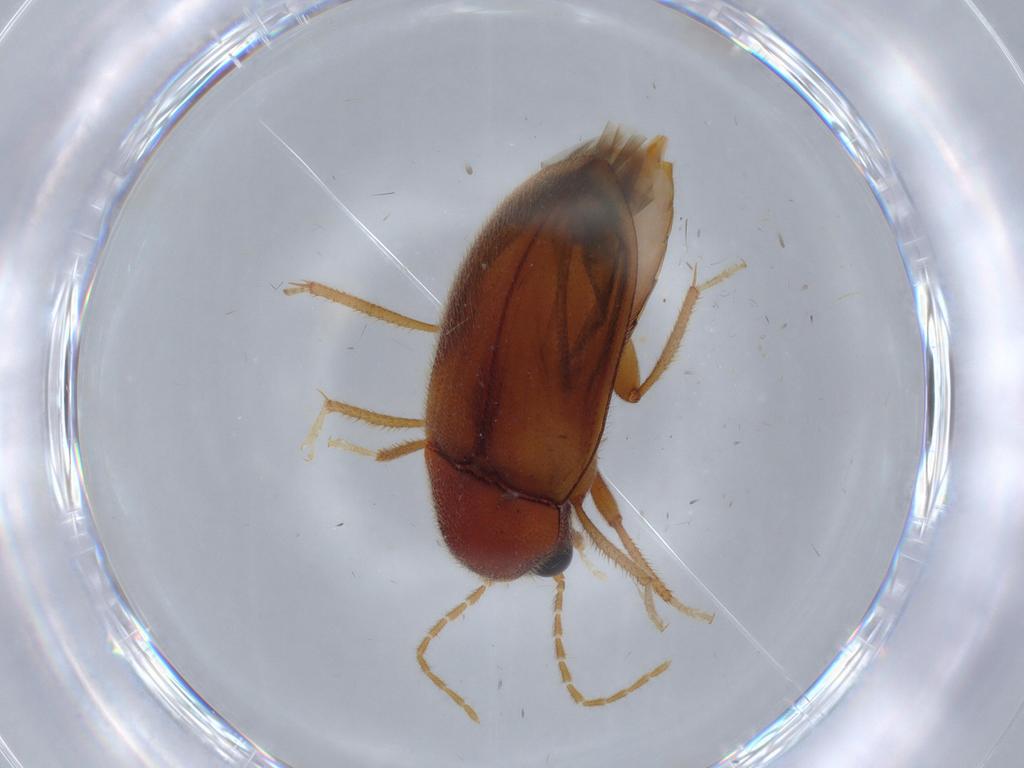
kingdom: Animalia
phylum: Arthropoda
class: Insecta
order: Coleoptera
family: Ptilodactylidae
